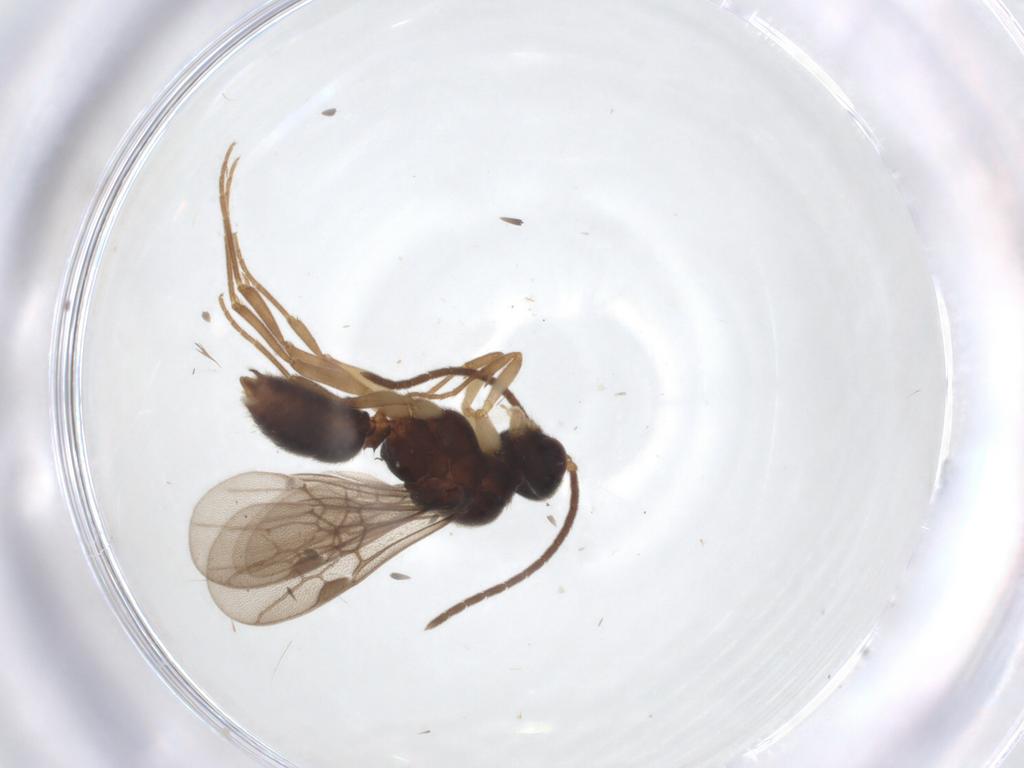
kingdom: Animalia
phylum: Arthropoda
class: Insecta
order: Hymenoptera
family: Formicidae
